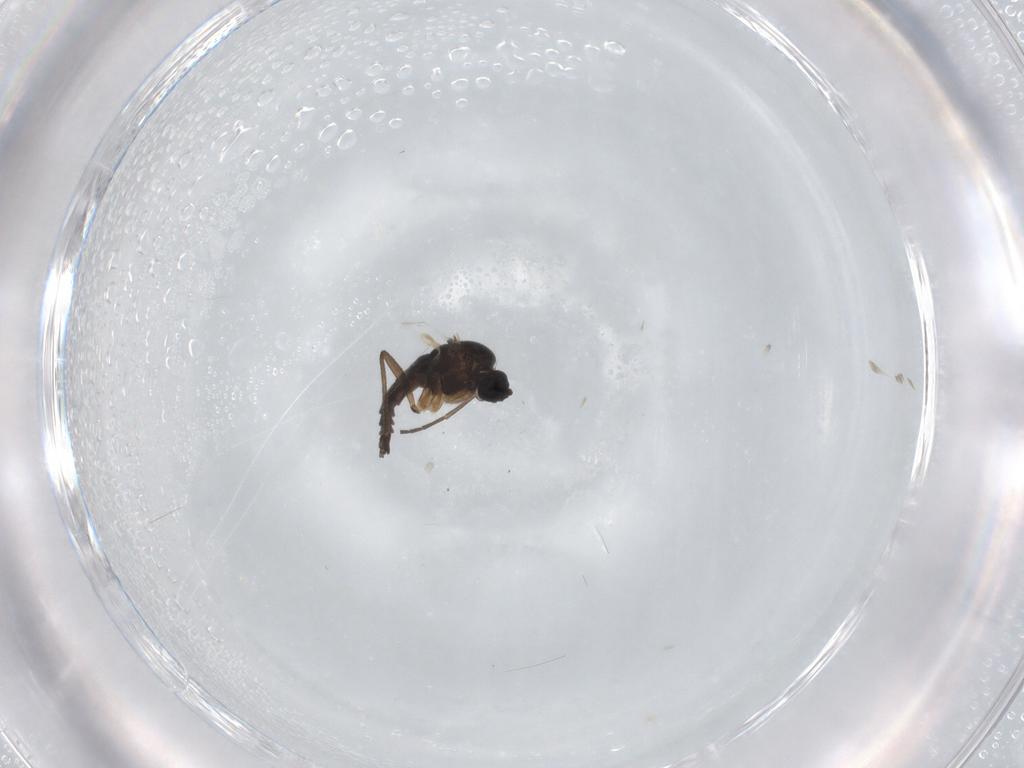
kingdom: Animalia
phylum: Arthropoda
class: Insecta
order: Diptera
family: Sciaridae
